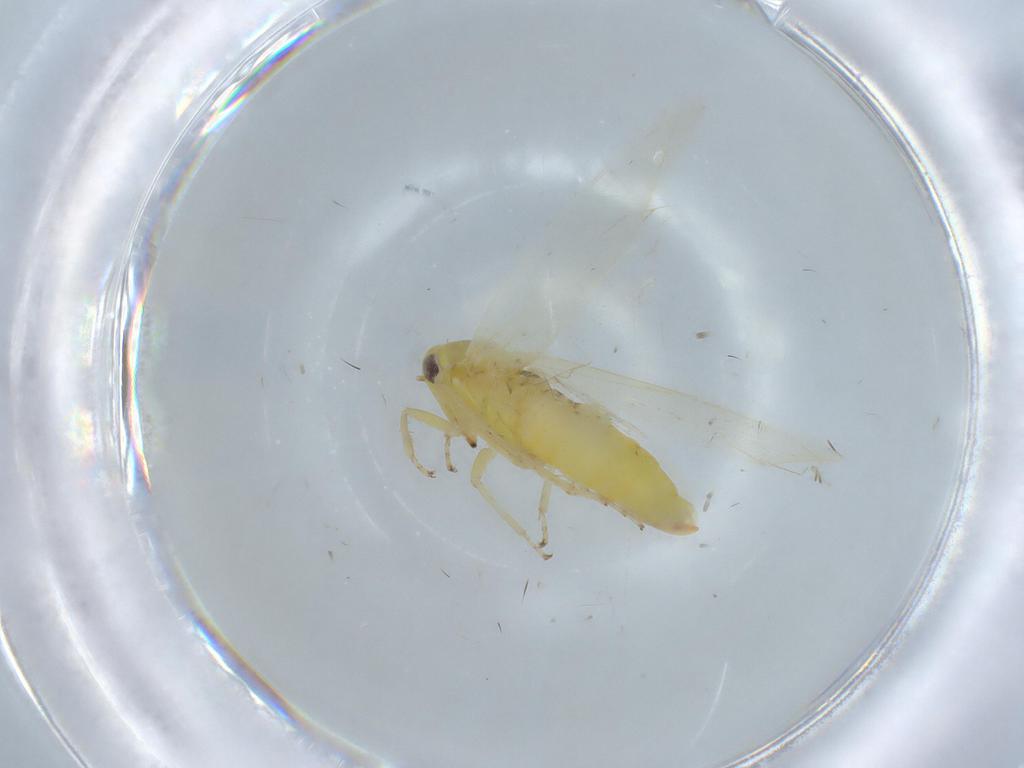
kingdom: Animalia
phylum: Arthropoda
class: Insecta
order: Hemiptera
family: Cicadellidae
